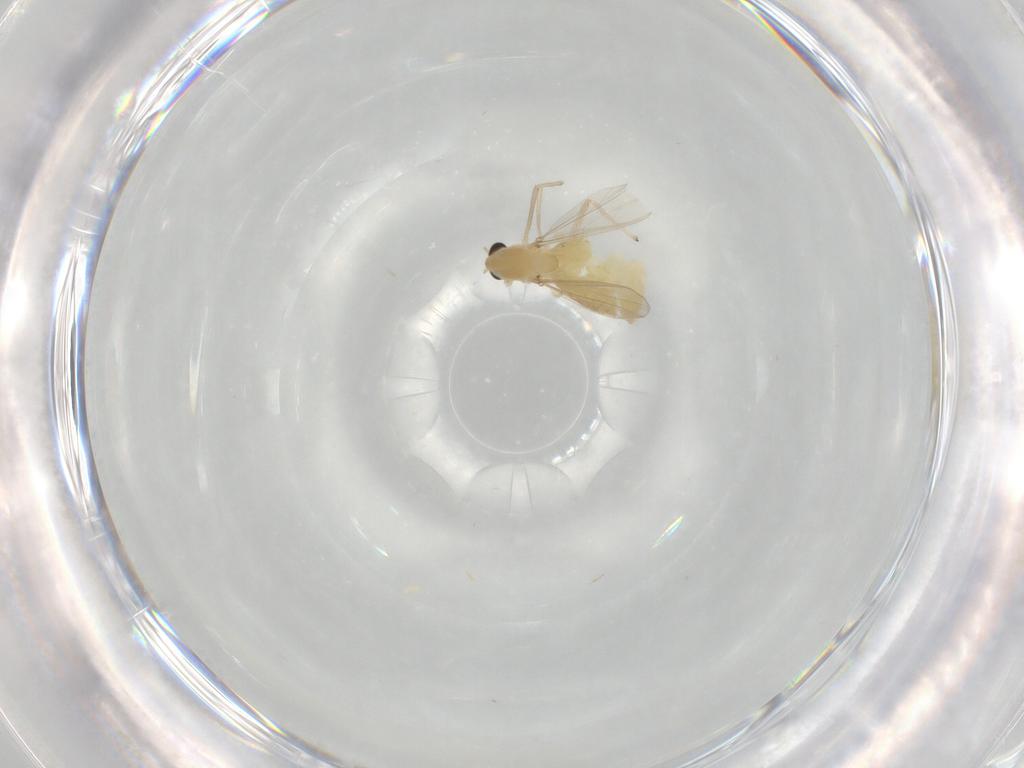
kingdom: Animalia
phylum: Arthropoda
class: Insecta
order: Diptera
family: Chironomidae
